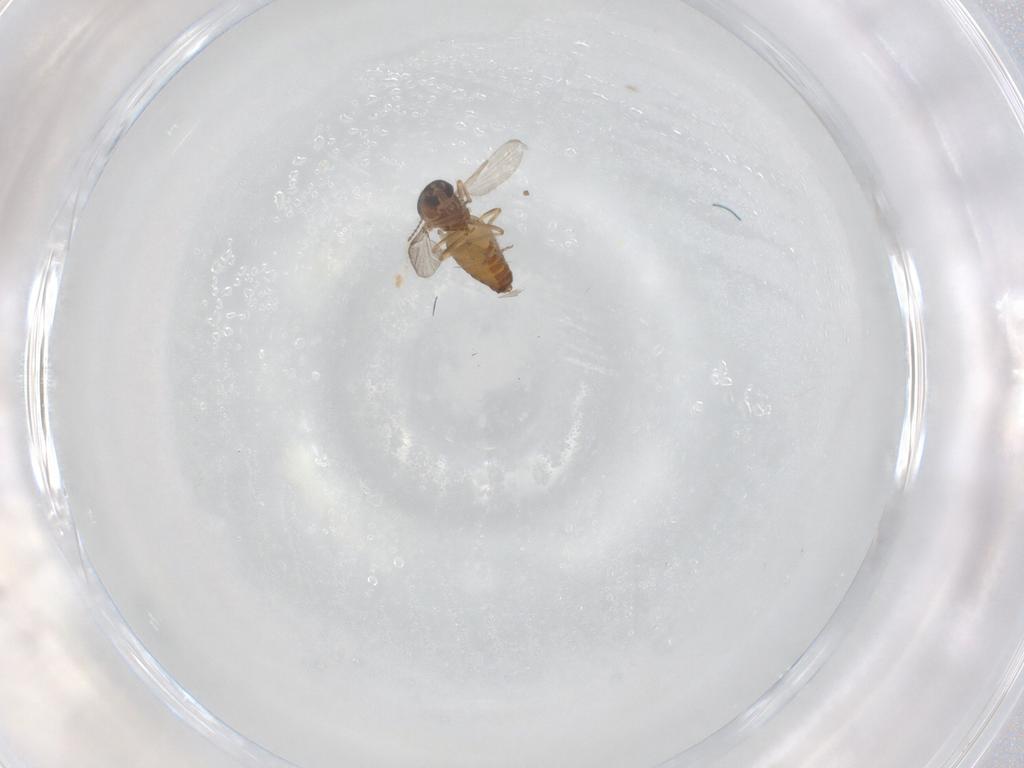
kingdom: Animalia
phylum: Arthropoda
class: Insecta
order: Diptera
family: Ceratopogonidae
